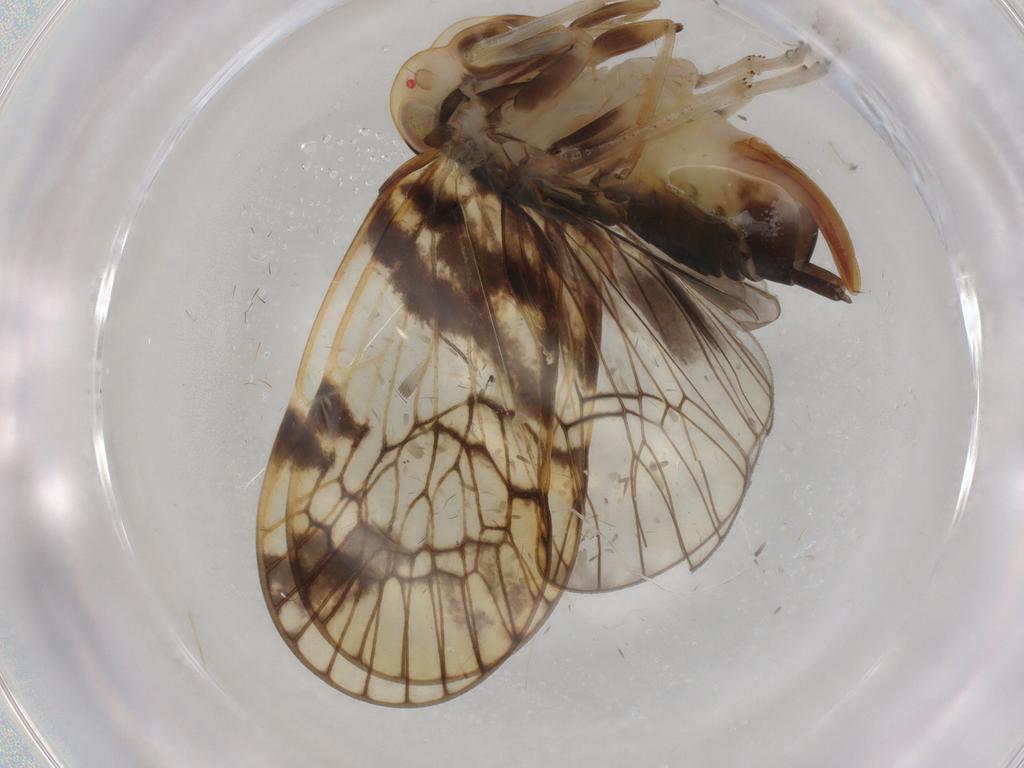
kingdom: Animalia
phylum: Arthropoda
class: Insecta
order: Hemiptera
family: Cixiidae
